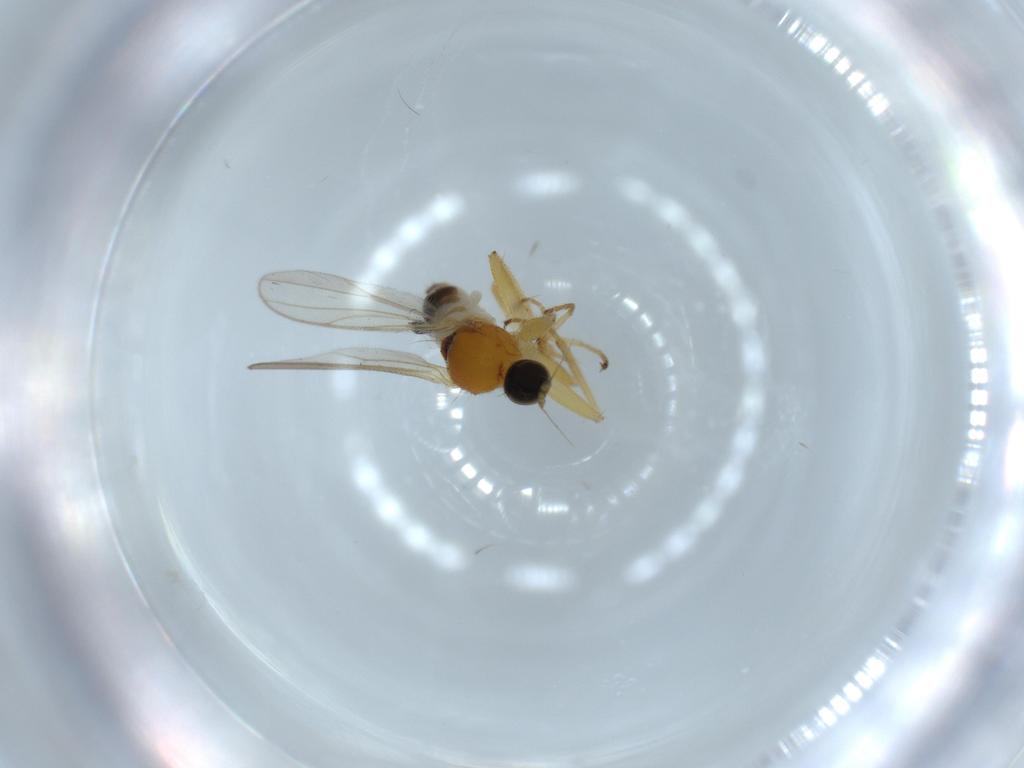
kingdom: Animalia
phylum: Arthropoda
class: Insecta
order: Diptera
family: Hybotidae
